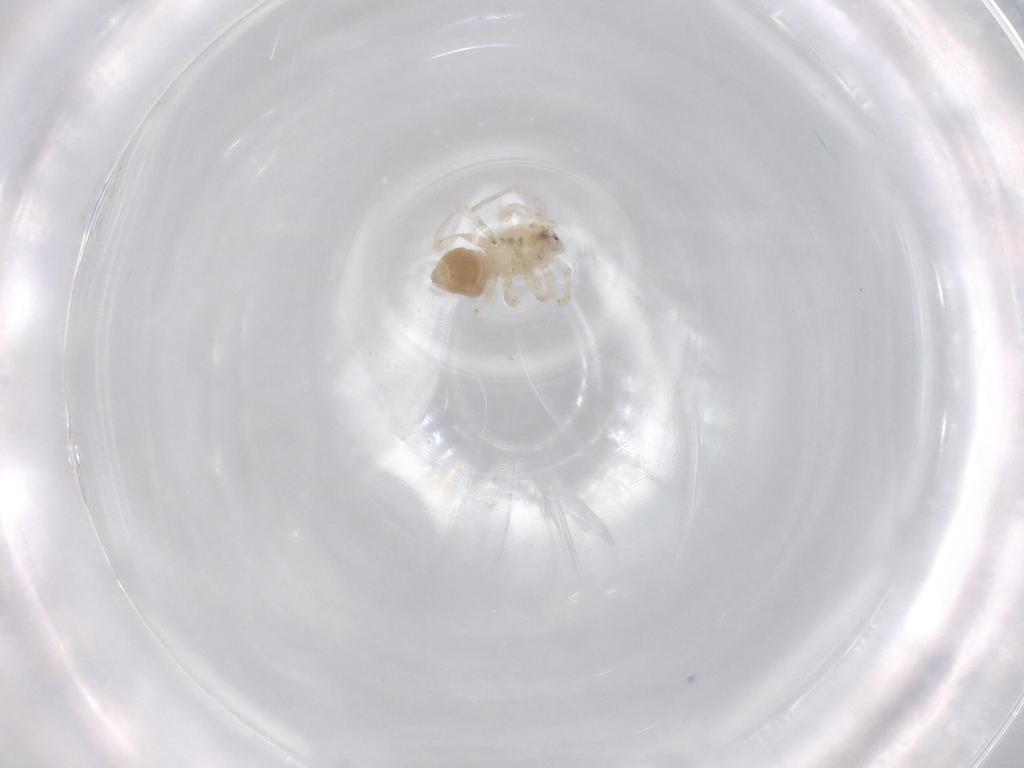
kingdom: Animalia
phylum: Arthropoda
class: Arachnida
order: Araneae
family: Anyphaenidae
